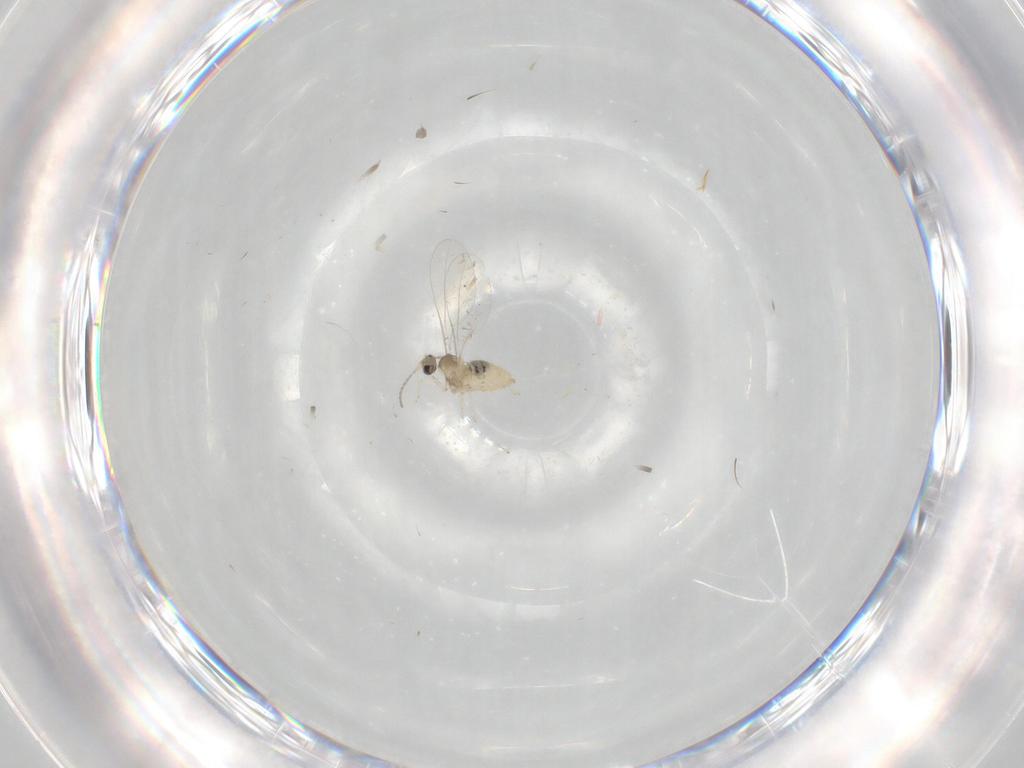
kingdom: Animalia
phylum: Arthropoda
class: Insecta
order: Diptera
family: Cecidomyiidae
